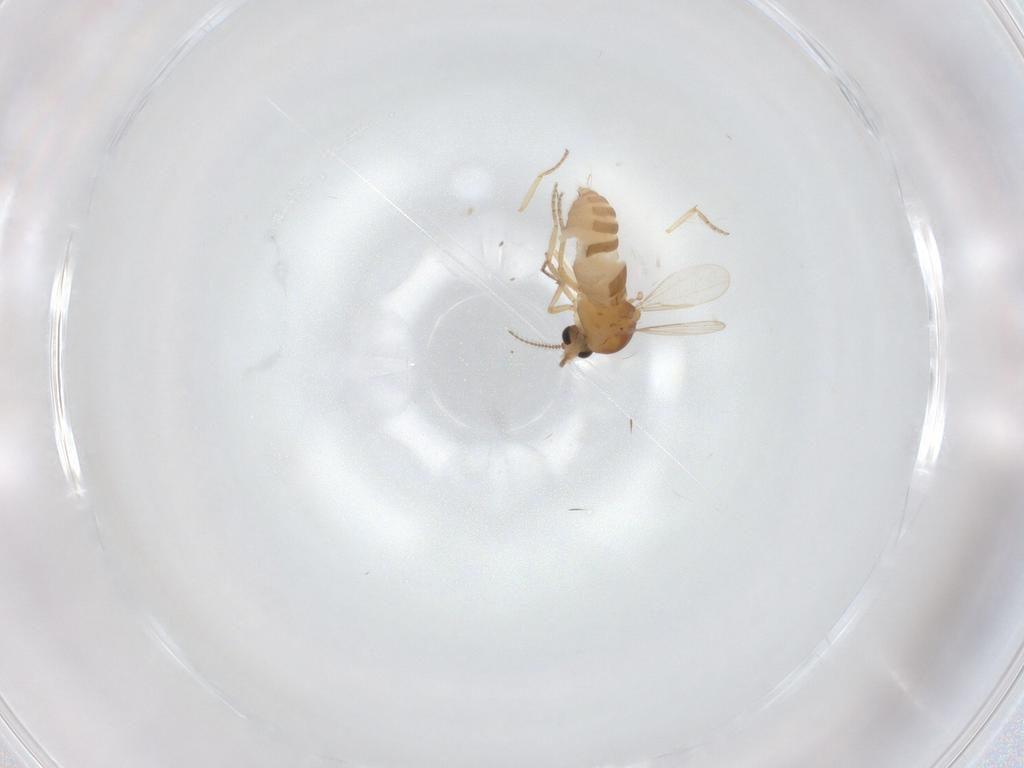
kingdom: Animalia
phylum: Arthropoda
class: Insecta
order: Diptera
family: Ceratopogonidae
